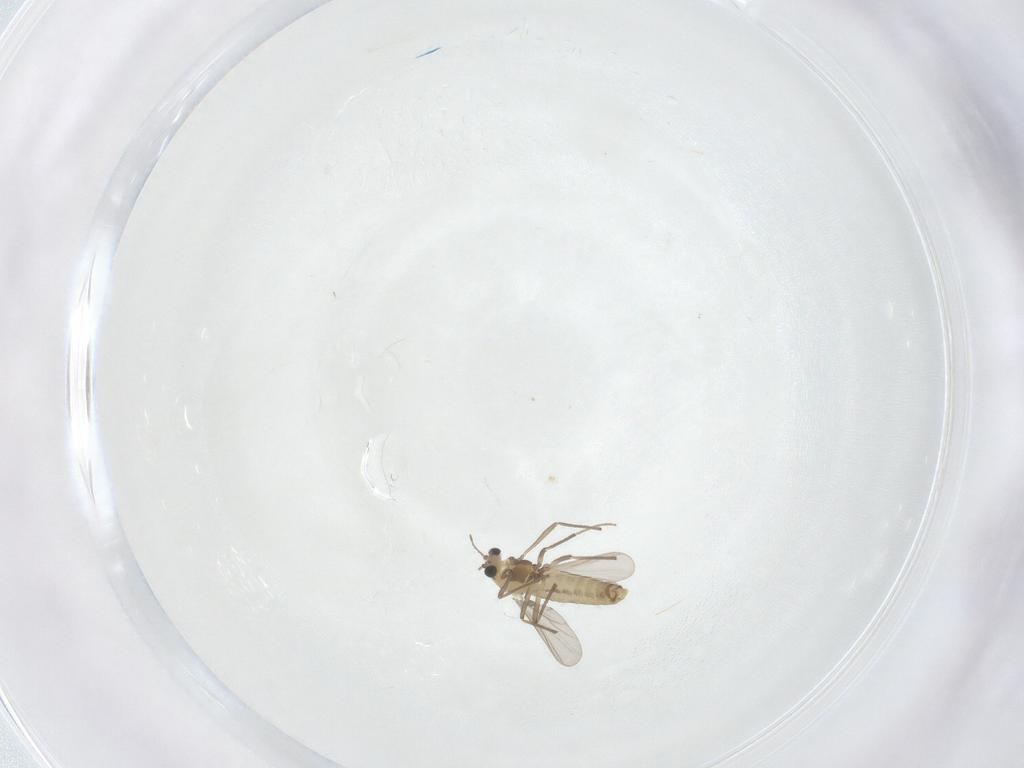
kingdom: Animalia
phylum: Arthropoda
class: Insecta
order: Diptera
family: Chironomidae
